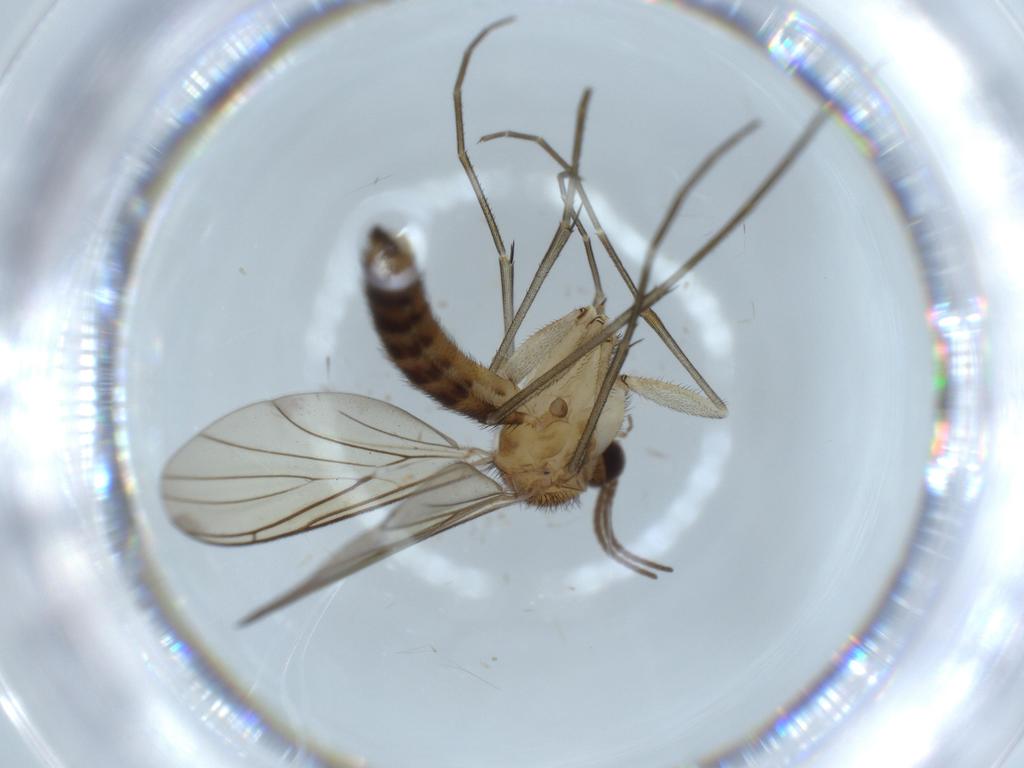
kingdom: Animalia
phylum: Arthropoda
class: Insecta
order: Diptera
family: Keroplatidae
